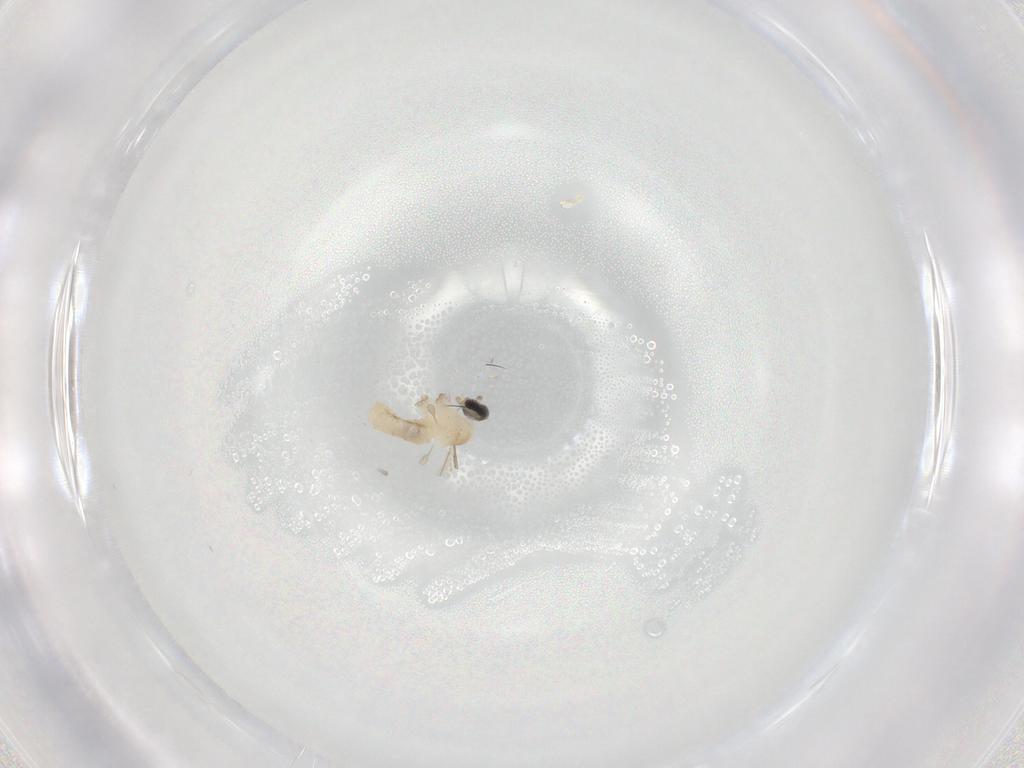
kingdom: Animalia
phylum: Arthropoda
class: Insecta
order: Diptera
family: Cecidomyiidae
